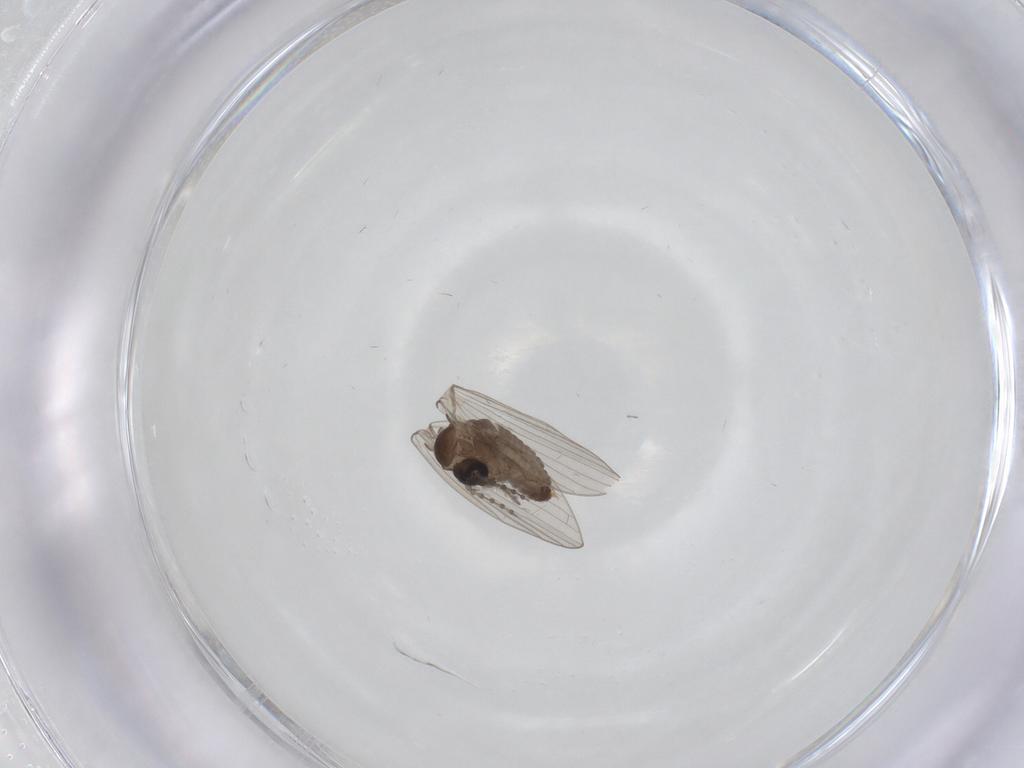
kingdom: Animalia
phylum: Arthropoda
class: Insecta
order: Diptera
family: Psychodidae
